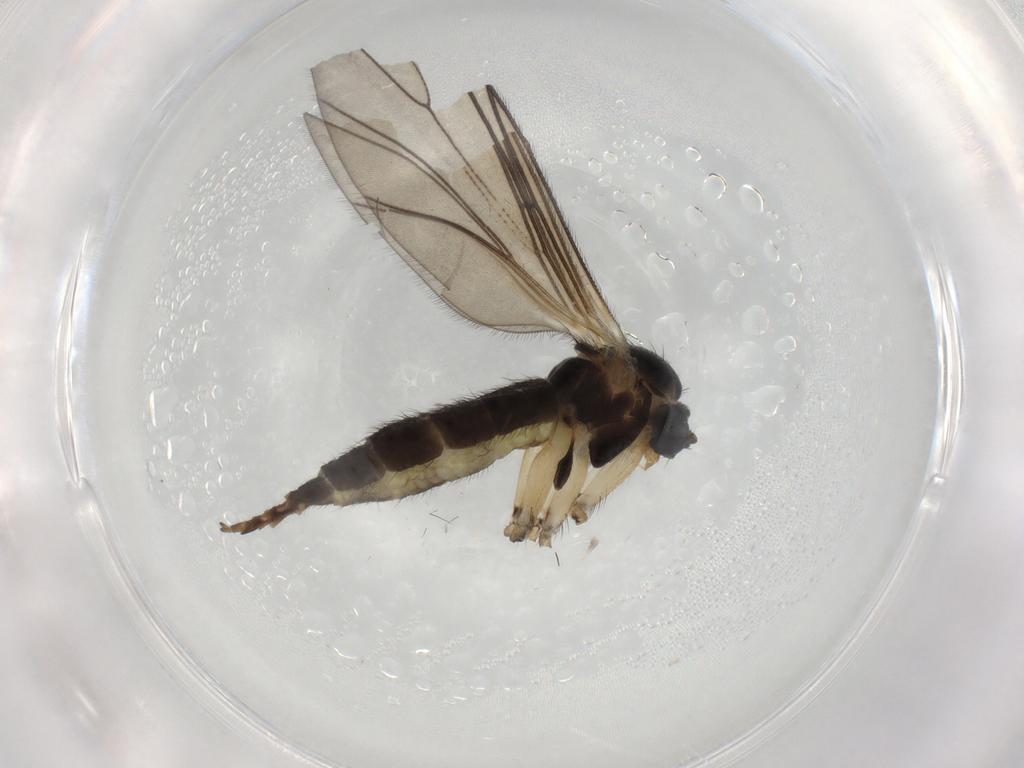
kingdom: Animalia
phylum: Arthropoda
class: Insecta
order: Diptera
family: Sciaridae
